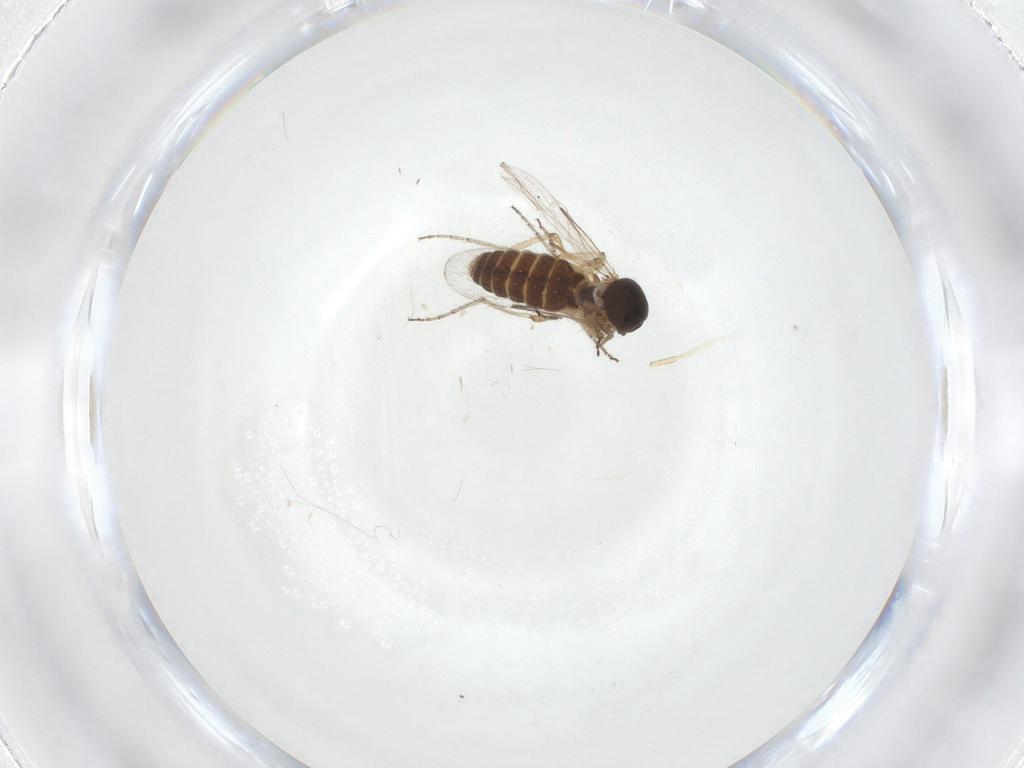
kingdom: Animalia
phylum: Arthropoda
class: Insecta
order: Diptera
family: Ceratopogonidae
